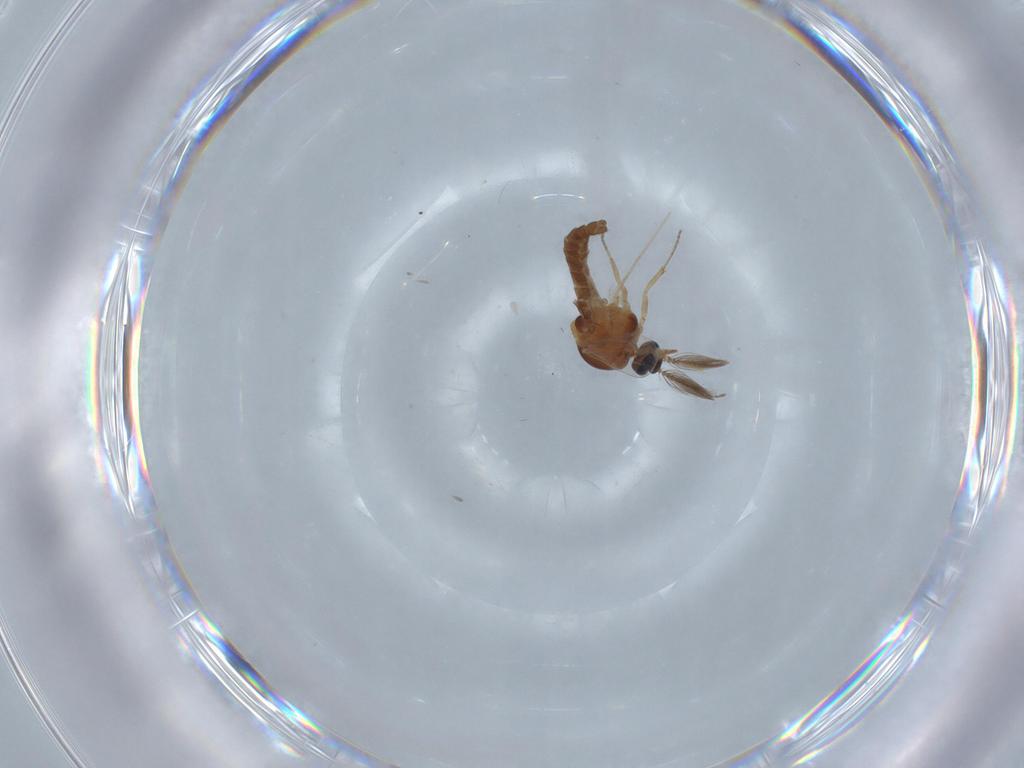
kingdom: Animalia
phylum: Arthropoda
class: Insecta
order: Diptera
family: Ceratopogonidae
